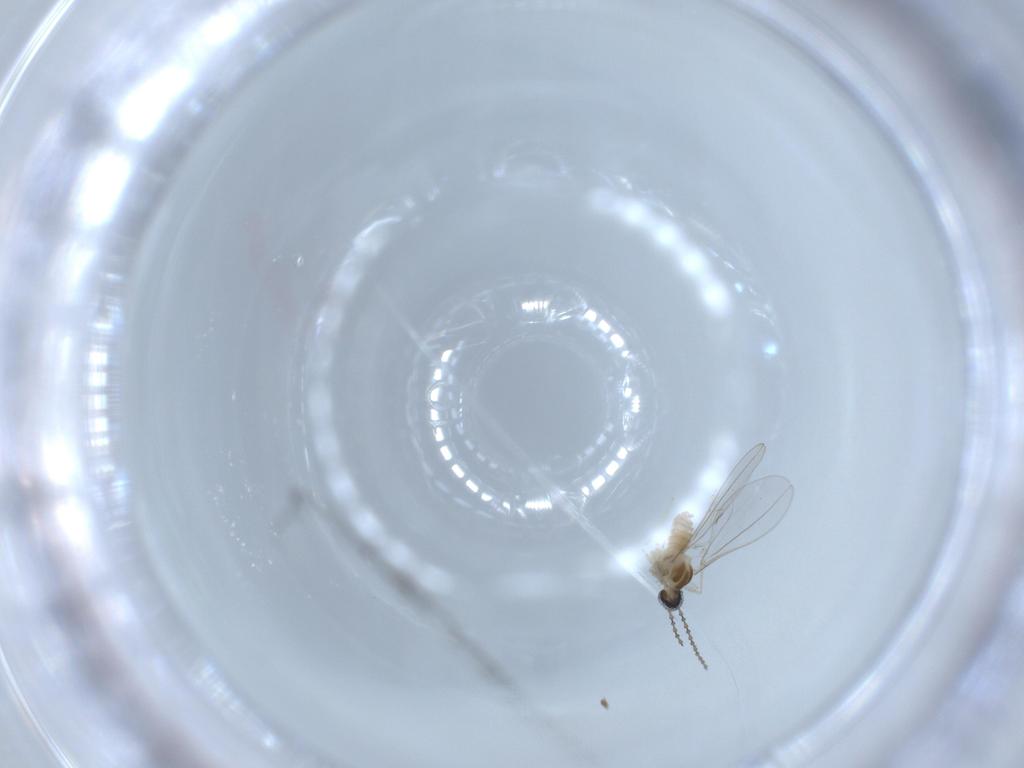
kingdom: Animalia
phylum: Arthropoda
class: Insecta
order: Diptera
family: Cecidomyiidae
